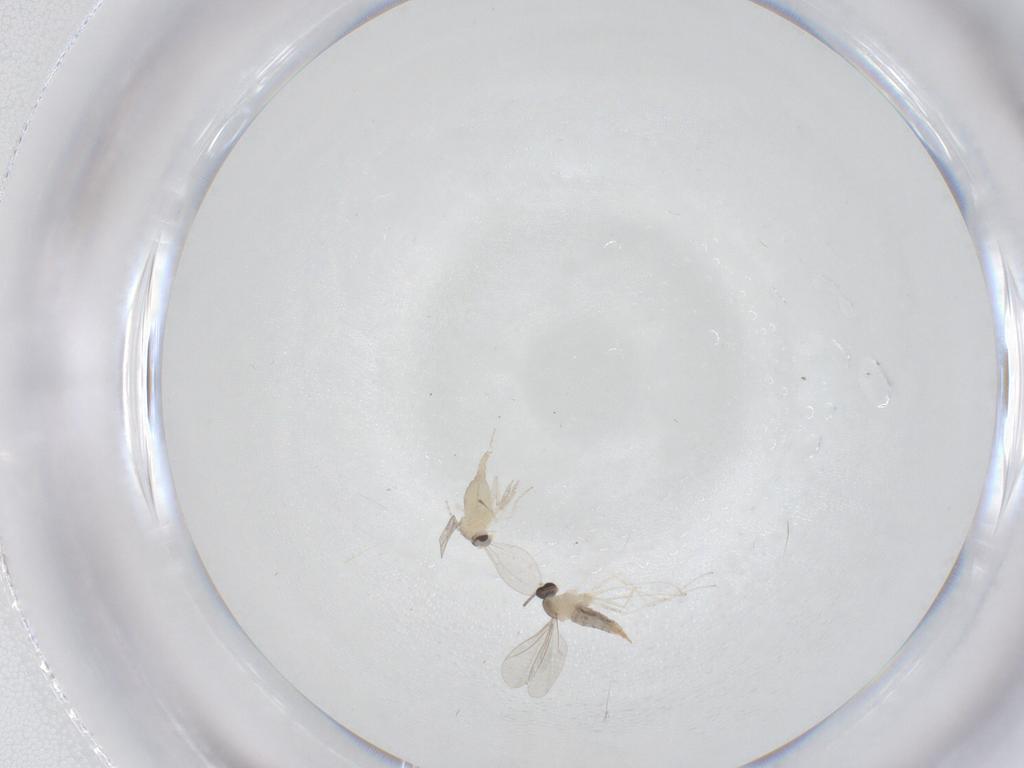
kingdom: Animalia
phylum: Arthropoda
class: Insecta
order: Diptera
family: Cecidomyiidae
